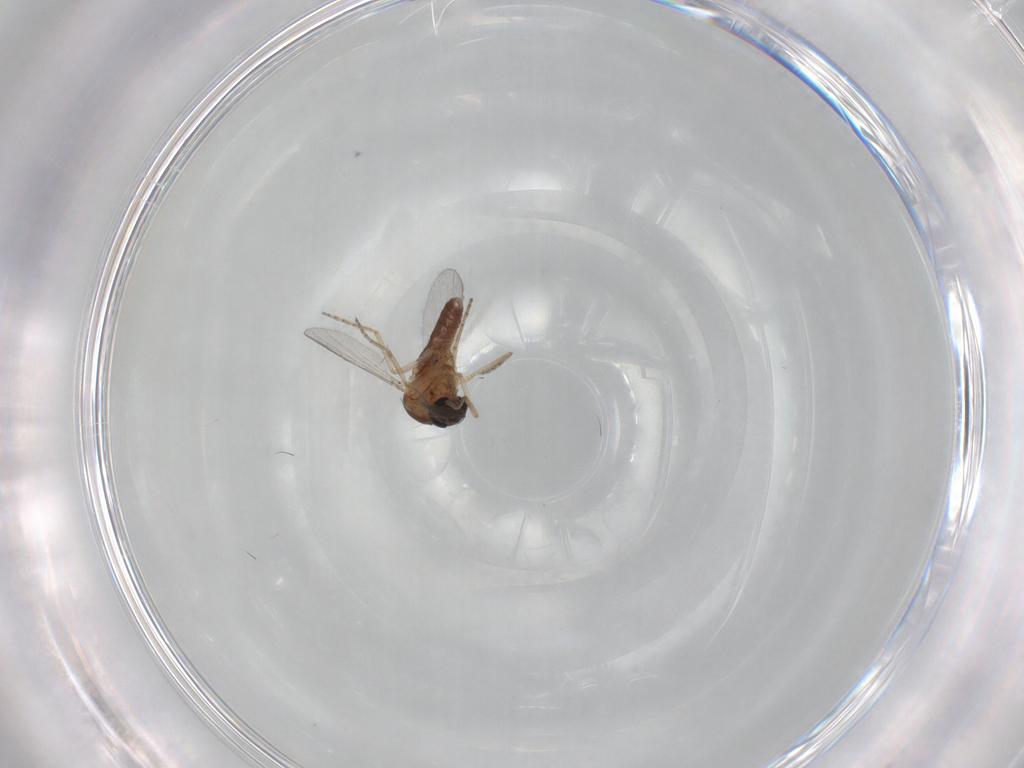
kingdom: Animalia
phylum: Arthropoda
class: Insecta
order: Diptera
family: Ceratopogonidae
